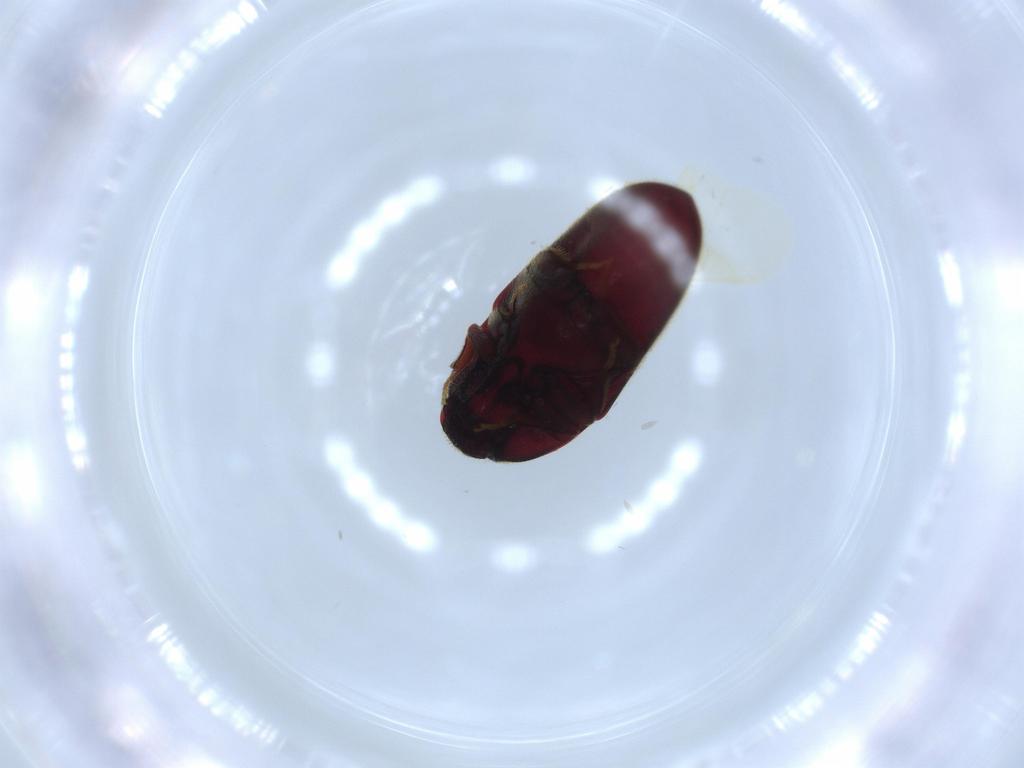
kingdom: Animalia
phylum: Arthropoda
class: Insecta
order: Coleoptera
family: Throscidae
